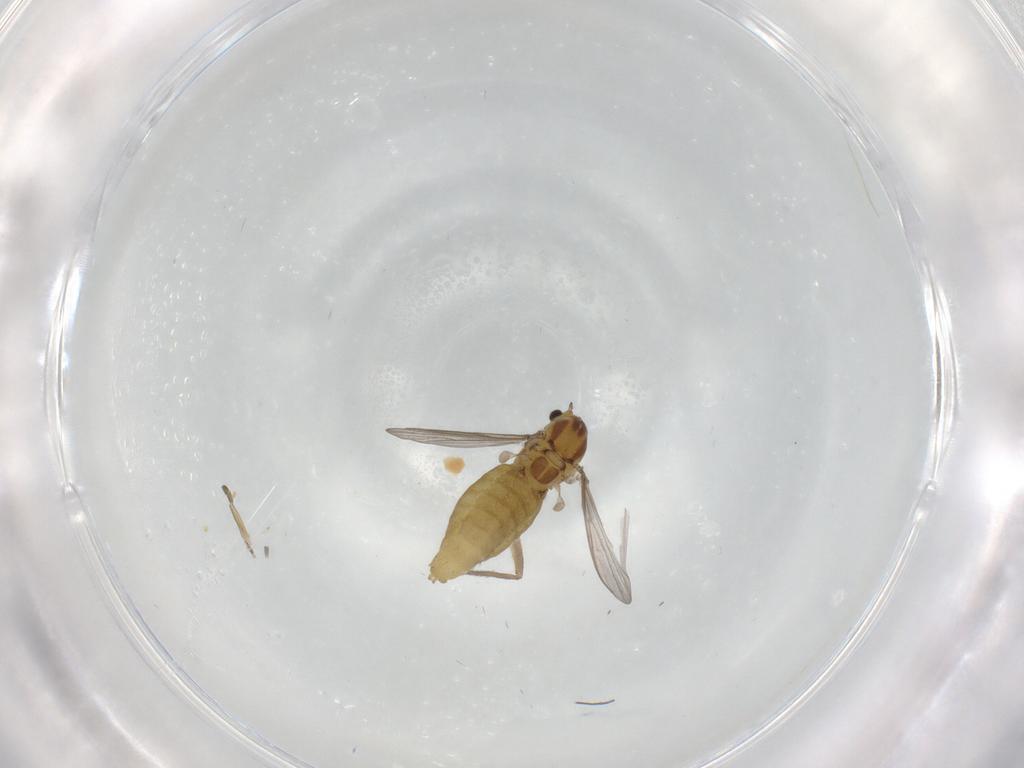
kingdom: Animalia
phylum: Arthropoda
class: Insecta
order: Diptera
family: Chironomidae
